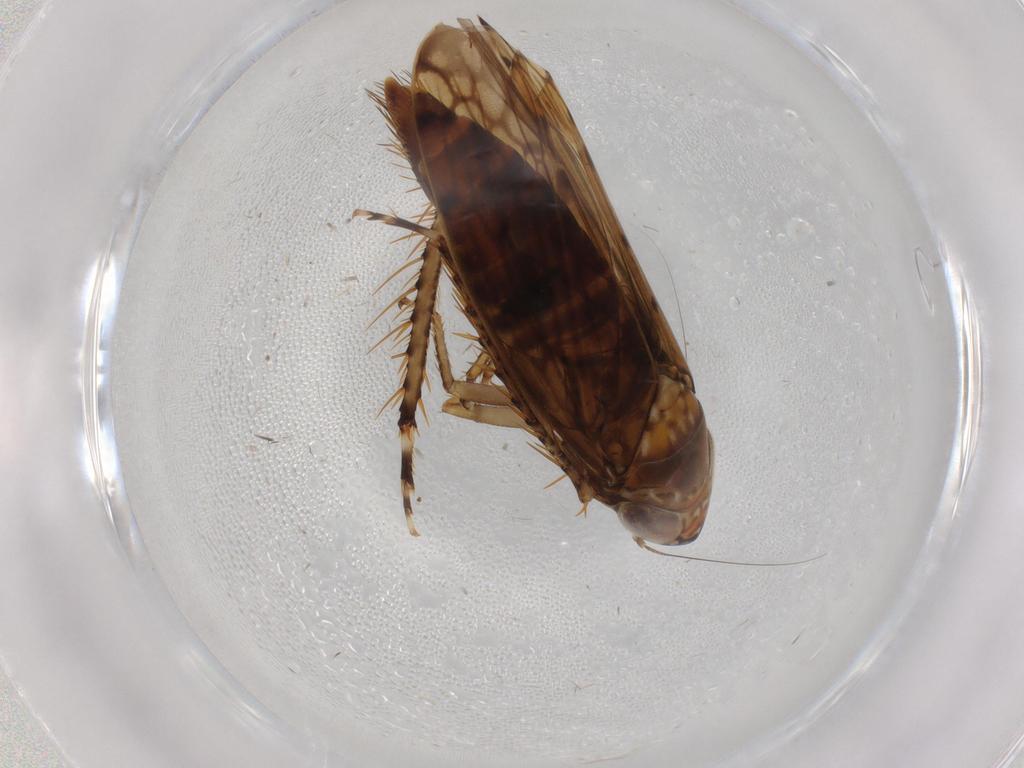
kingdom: Animalia
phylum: Arthropoda
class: Insecta
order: Hemiptera
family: Cicadellidae
